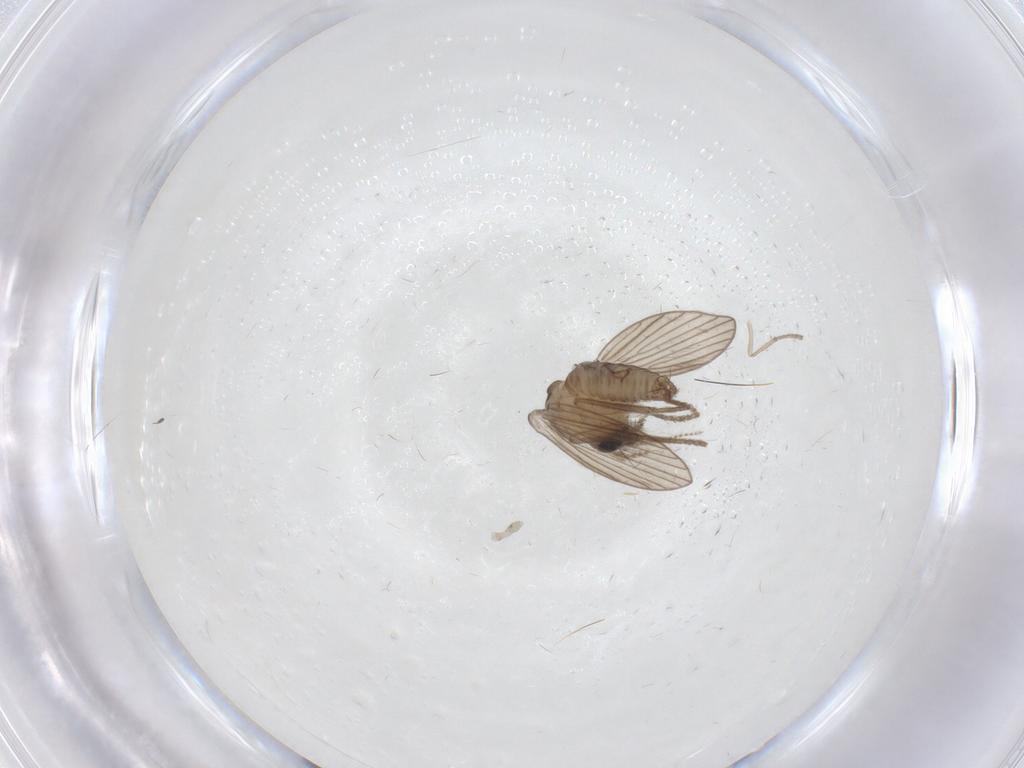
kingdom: Animalia
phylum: Arthropoda
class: Insecta
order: Diptera
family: Psychodidae
